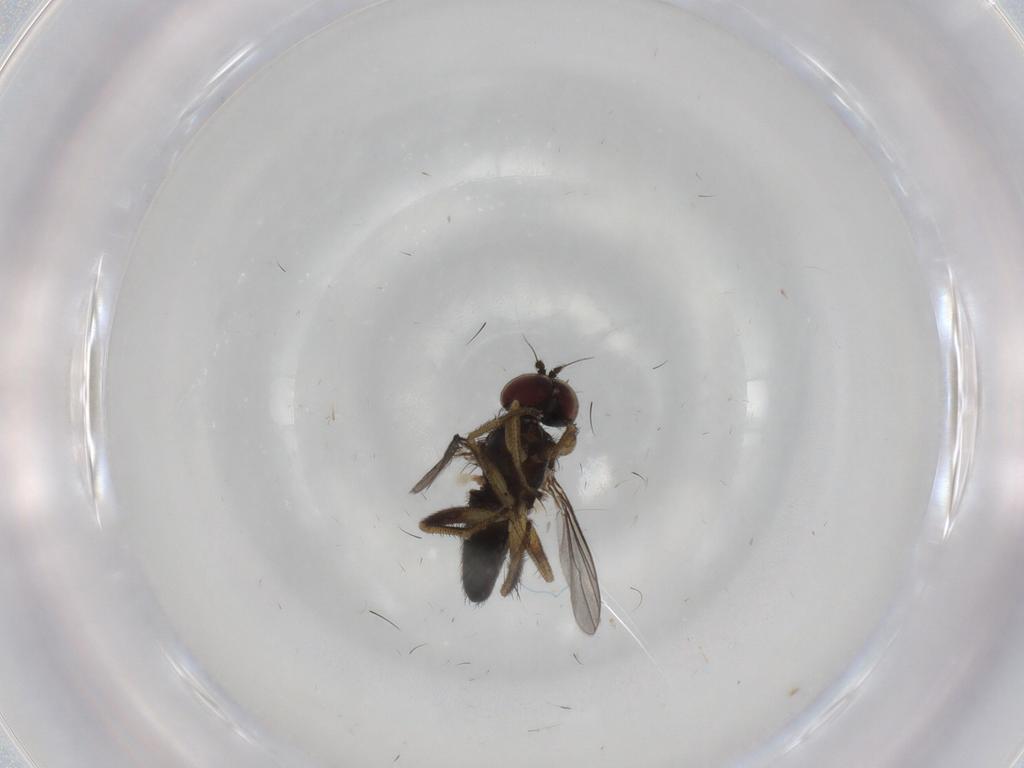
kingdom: Animalia
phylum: Arthropoda
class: Insecta
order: Diptera
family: Dolichopodidae
